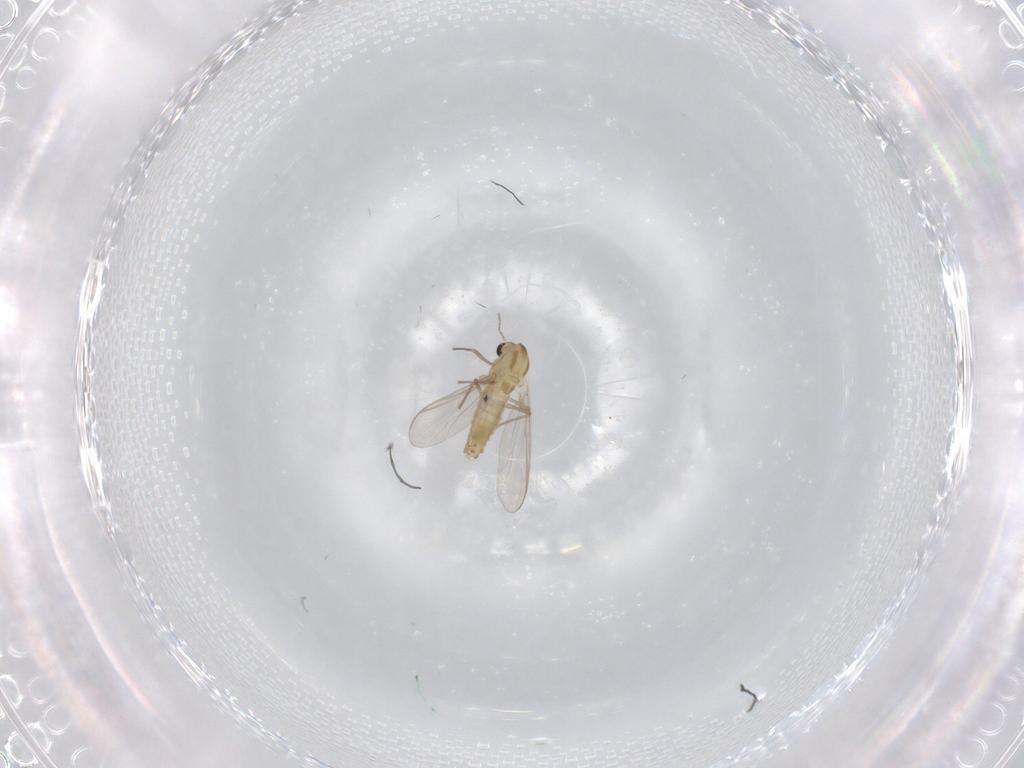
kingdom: Animalia
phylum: Arthropoda
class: Insecta
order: Diptera
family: Chironomidae
